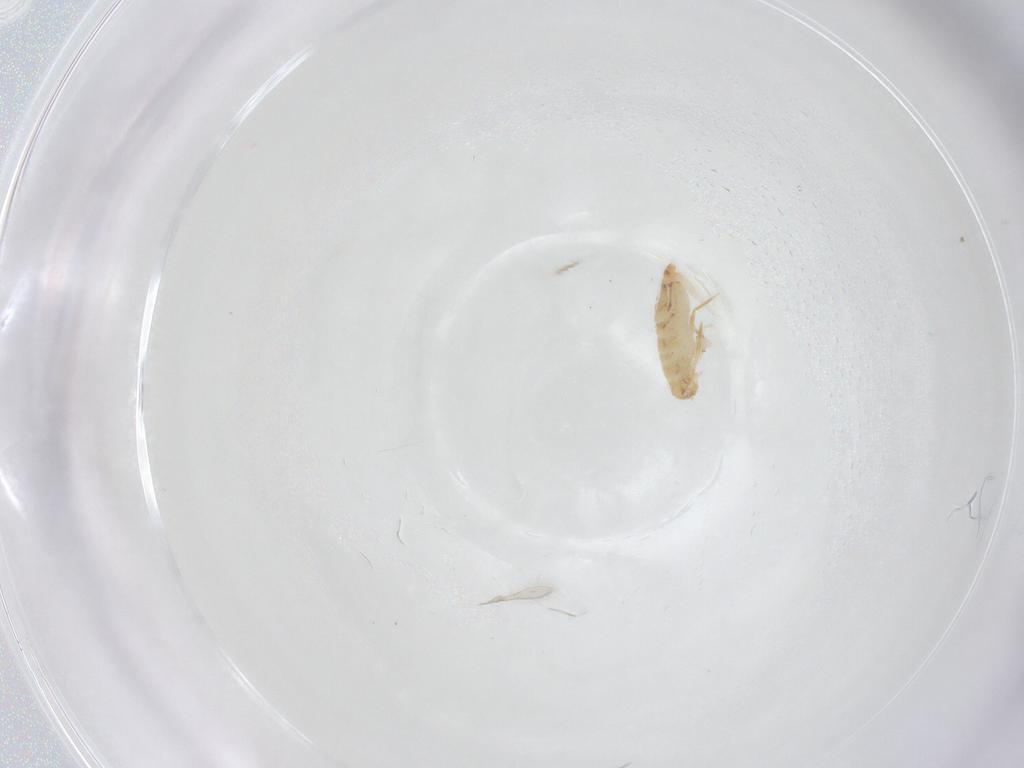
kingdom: Animalia
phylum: Arthropoda
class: Collembola
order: Entomobryomorpha
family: Entomobryidae
